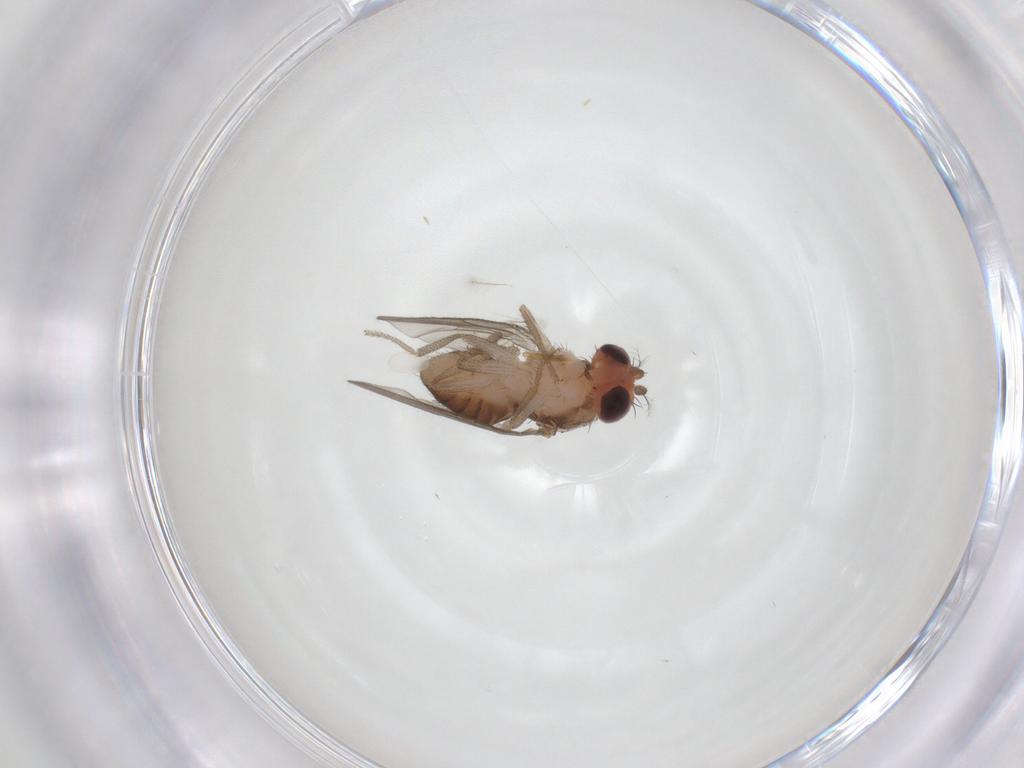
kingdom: Animalia
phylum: Arthropoda
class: Insecta
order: Diptera
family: Drosophilidae
